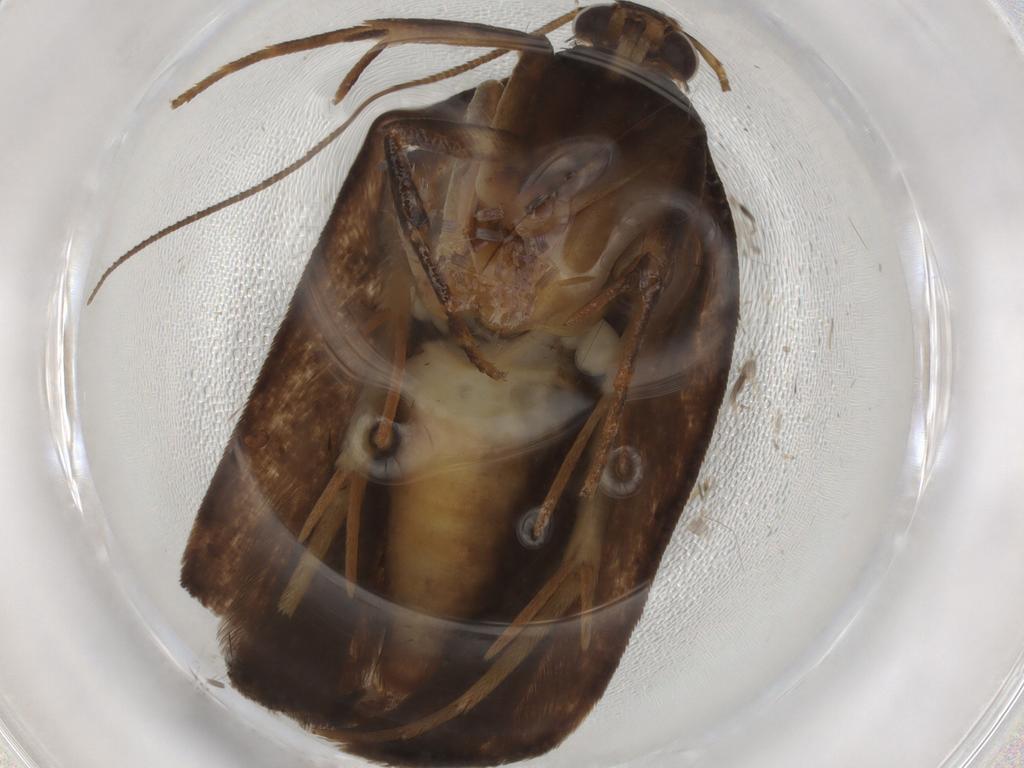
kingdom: Animalia
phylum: Arthropoda
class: Insecta
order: Lepidoptera
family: Gelechiidae
